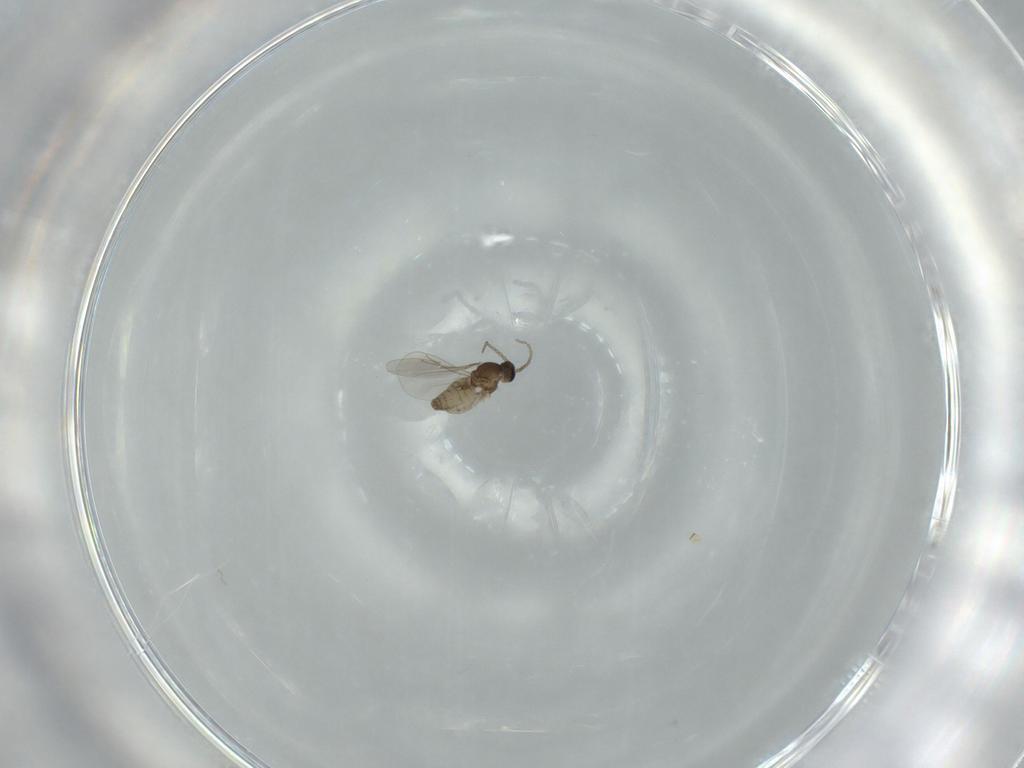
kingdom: Animalia
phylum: Arthropoda
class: Insecta
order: Diptera
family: Cecidomyiidae
